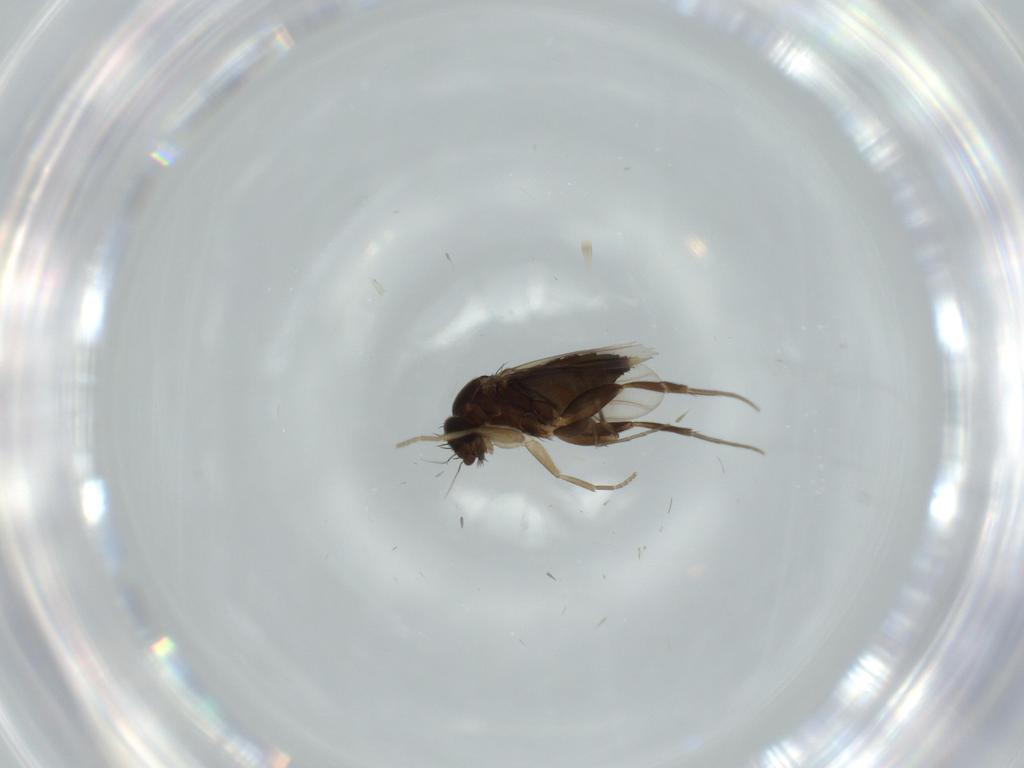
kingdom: Animalia
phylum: Arthropoda
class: Insecta
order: Diptera
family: Phoridae
